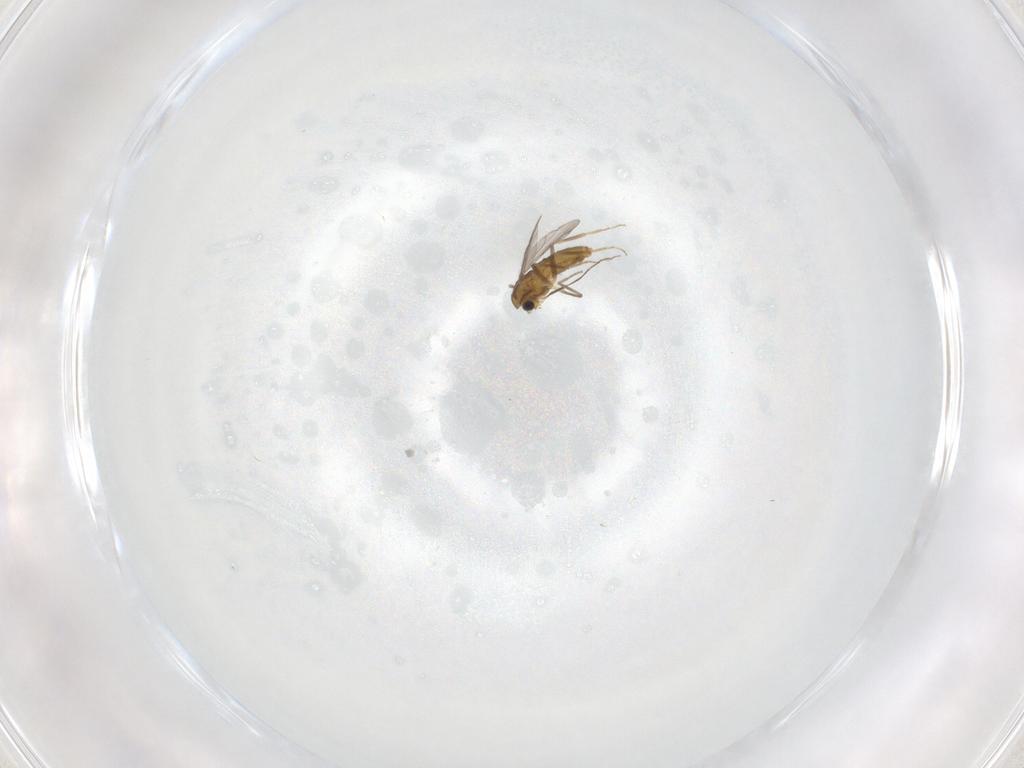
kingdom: Animalia
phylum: Arthropoda
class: Insecta
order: Diptera
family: Chironomidae
